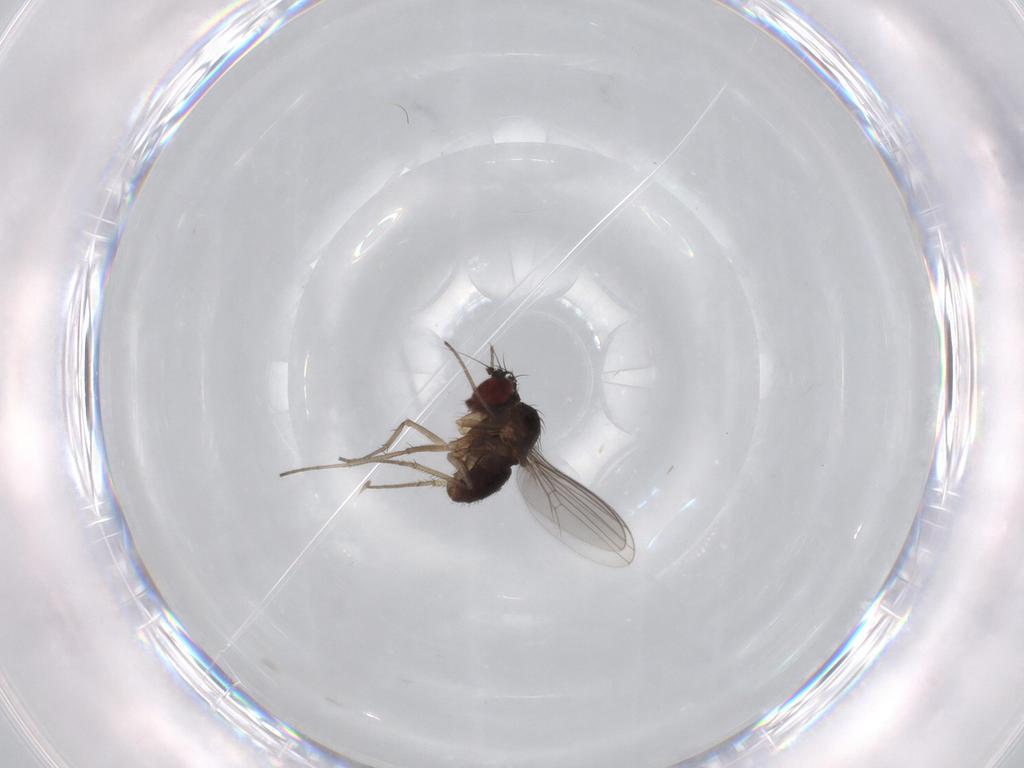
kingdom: Animalia
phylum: Arthropoda
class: Insecta
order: Diptera
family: Dolichopodidae
